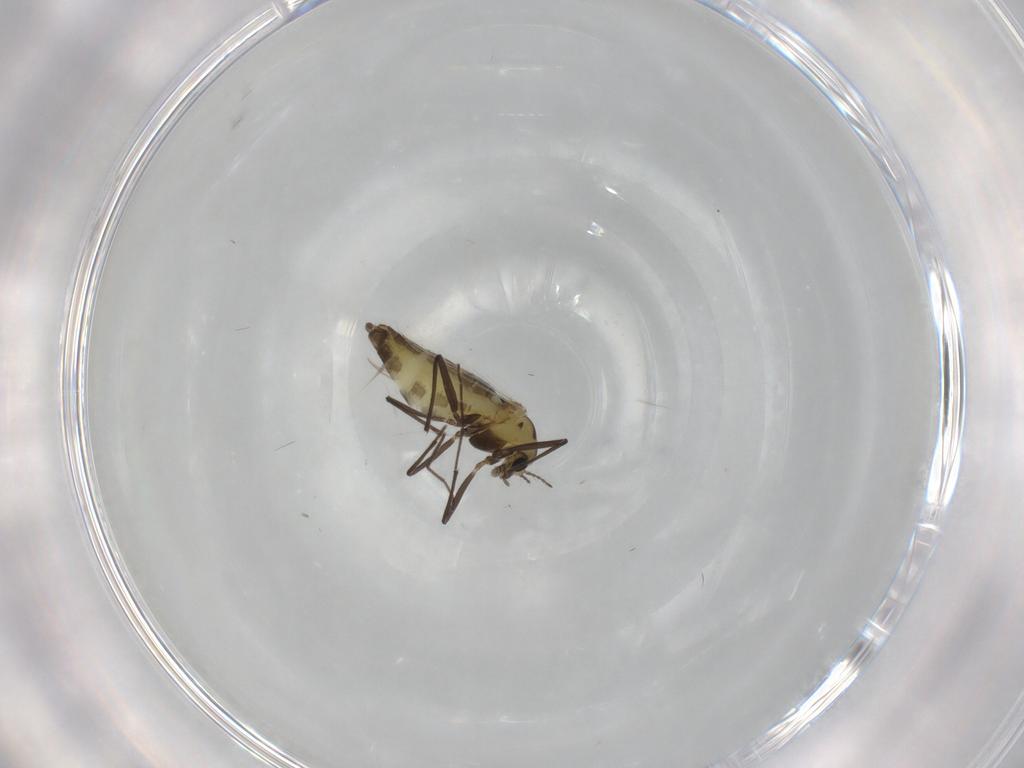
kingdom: Animalia
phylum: Arthropoda
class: Insecta
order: Diptera
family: Chironomidae
